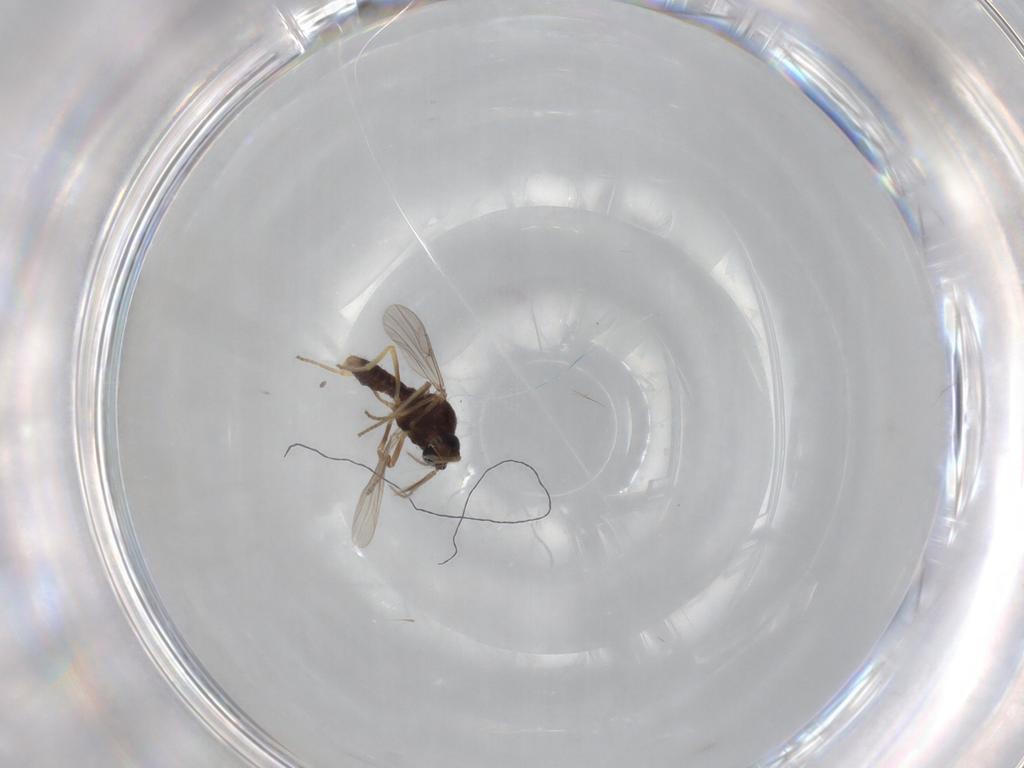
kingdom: Animalia
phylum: Arthropoda
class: Insecta
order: Diptera
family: Ceratopogonidae
